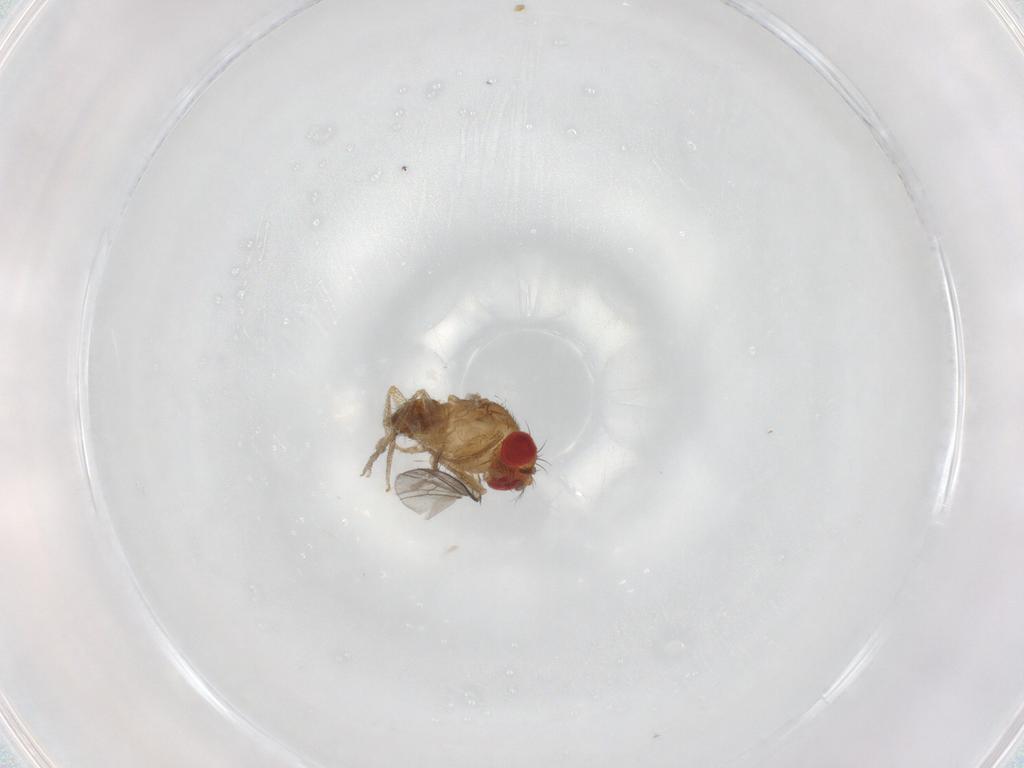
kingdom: Animalia
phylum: Arthropoda
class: Insecta
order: Diptera
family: Drosophilidae
